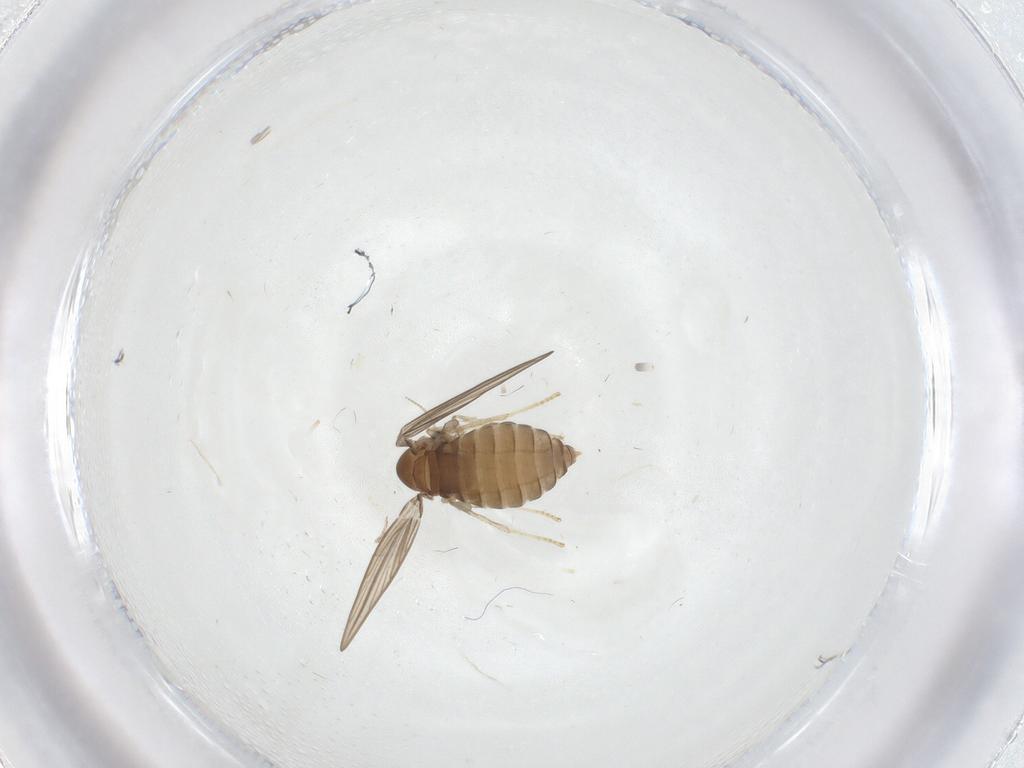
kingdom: Animalia
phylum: Arthropoda
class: Insecta
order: Diptera
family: Psychodidae
